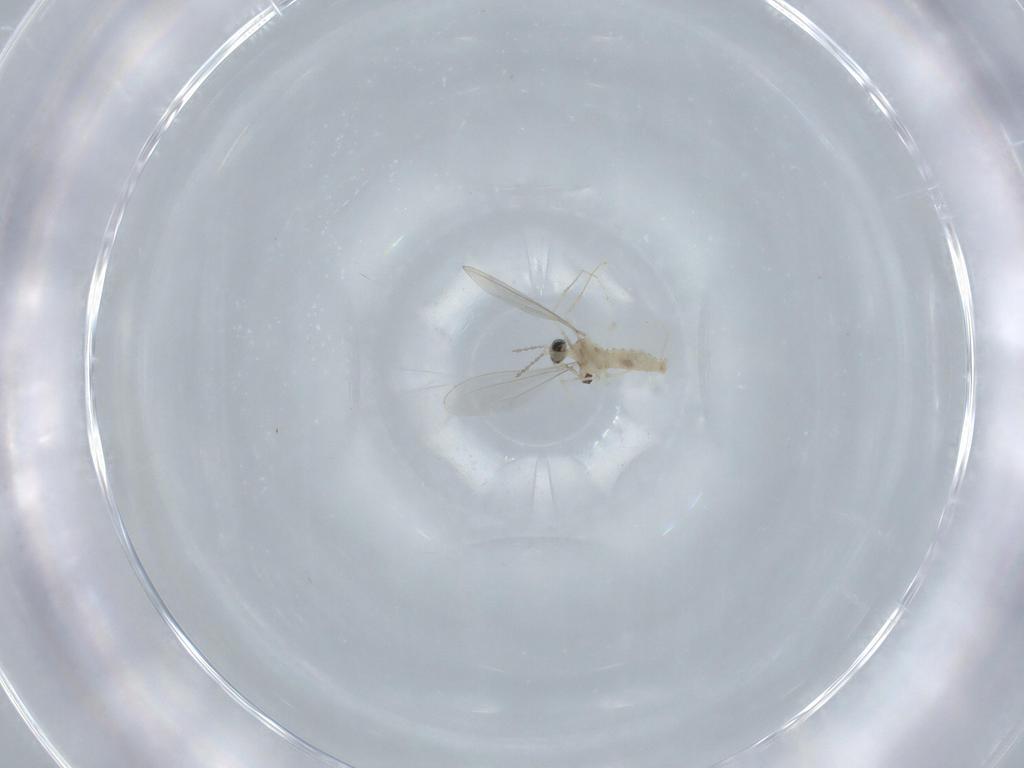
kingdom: Animalia
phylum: Arthropoda
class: Insecta
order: Diptera
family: Cecidomyiidae
